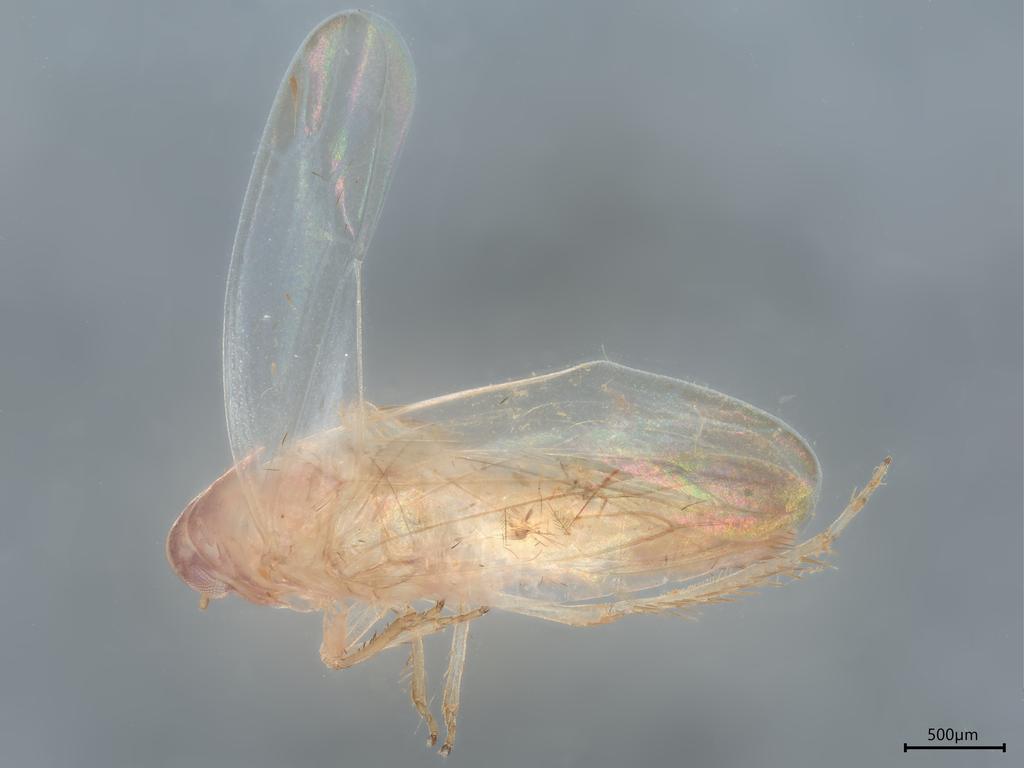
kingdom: Animalia
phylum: Arthropoda
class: Insecta
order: Hemiptera
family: Cicadellidae
